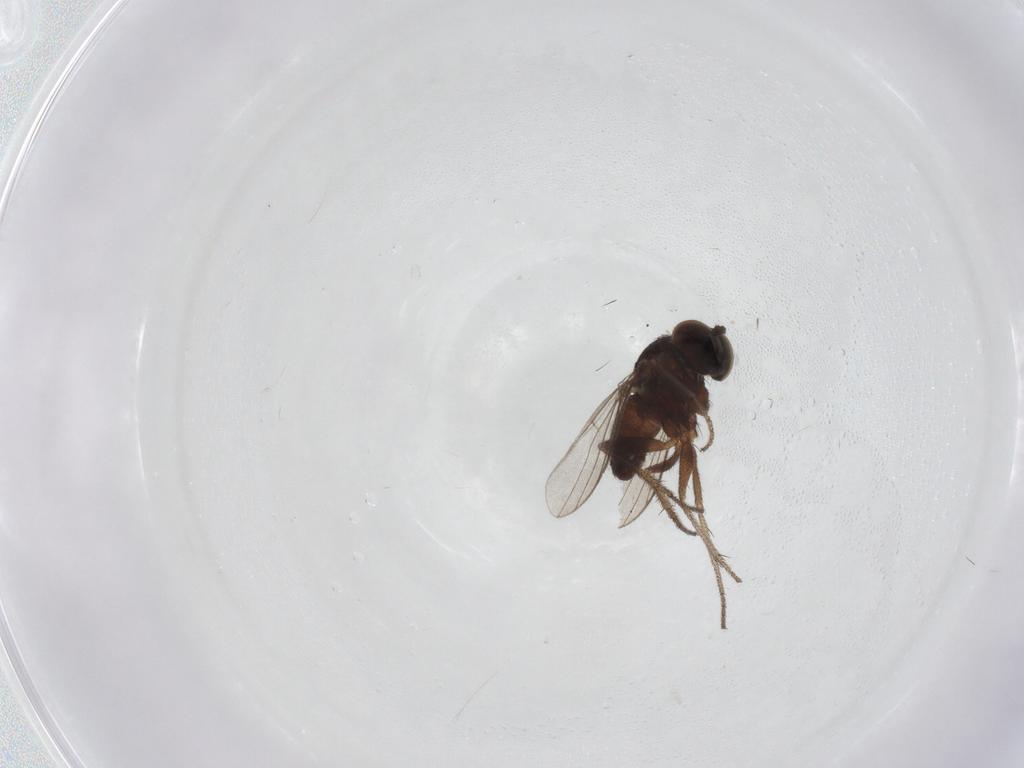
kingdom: Animalia
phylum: Arthropoda
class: Insecta
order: Diptera
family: Dolichopodidae
